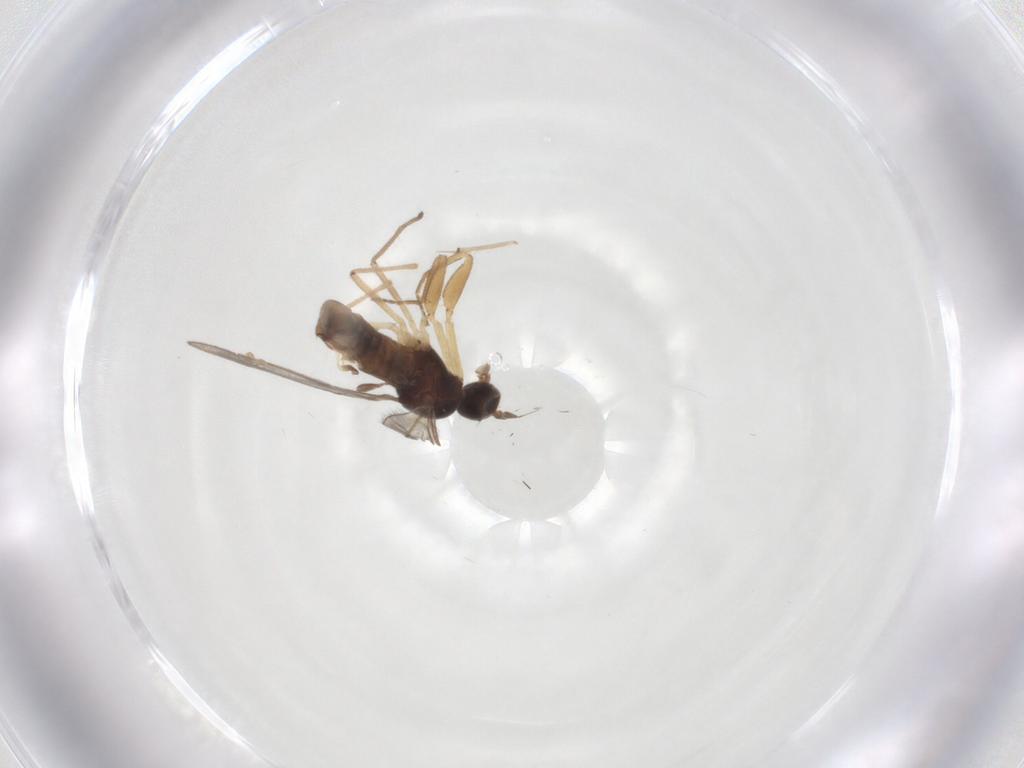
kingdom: Animalia
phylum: Arthropoda
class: Insecta
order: Diptera
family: Empididae
